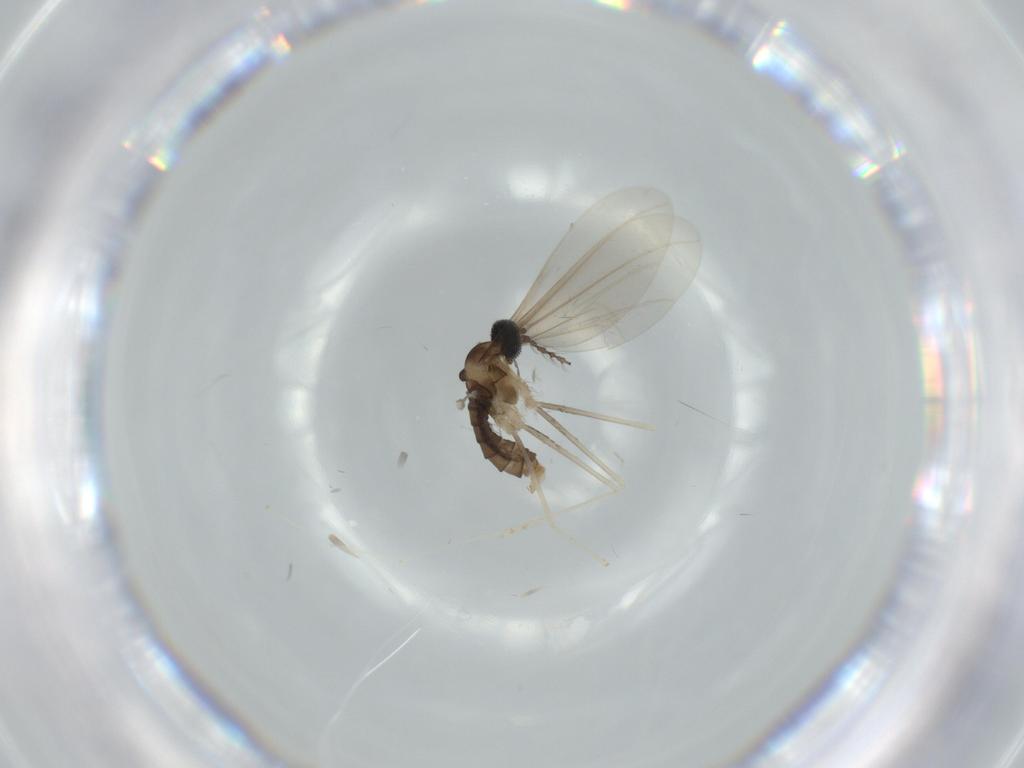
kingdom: Animalia
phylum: Arthropoda
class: Insecta
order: Diptera
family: Cecidomyiidae
